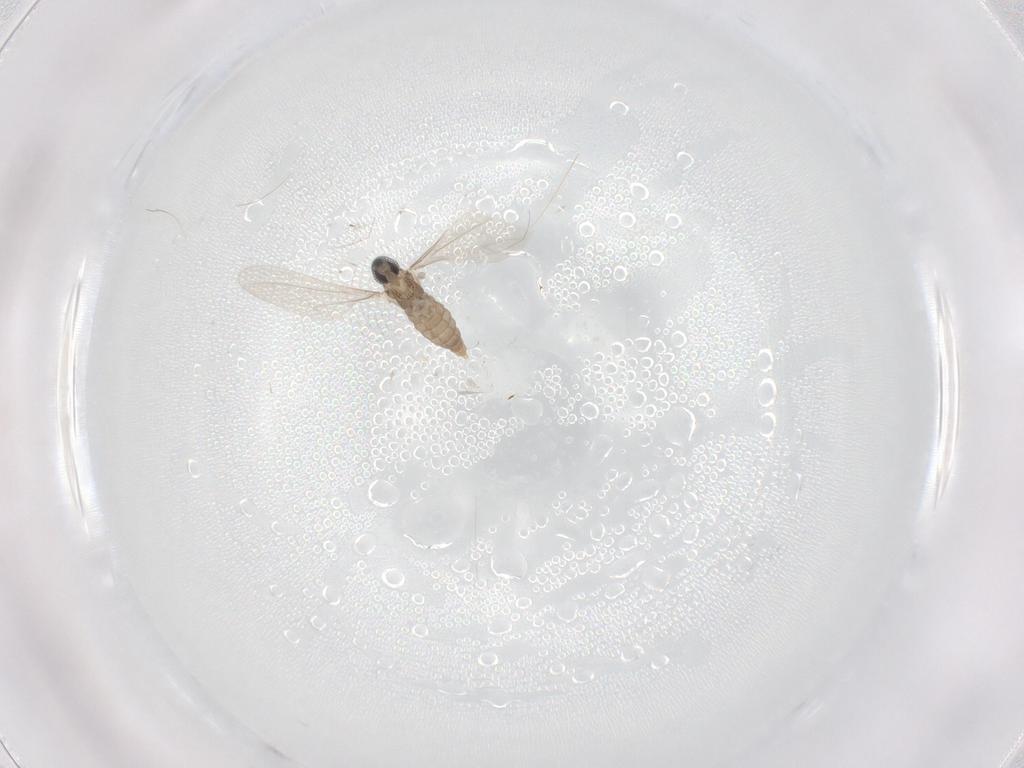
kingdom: Animalia
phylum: Arthropoda
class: Insecta
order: Diptera
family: Cecidomyiidae
